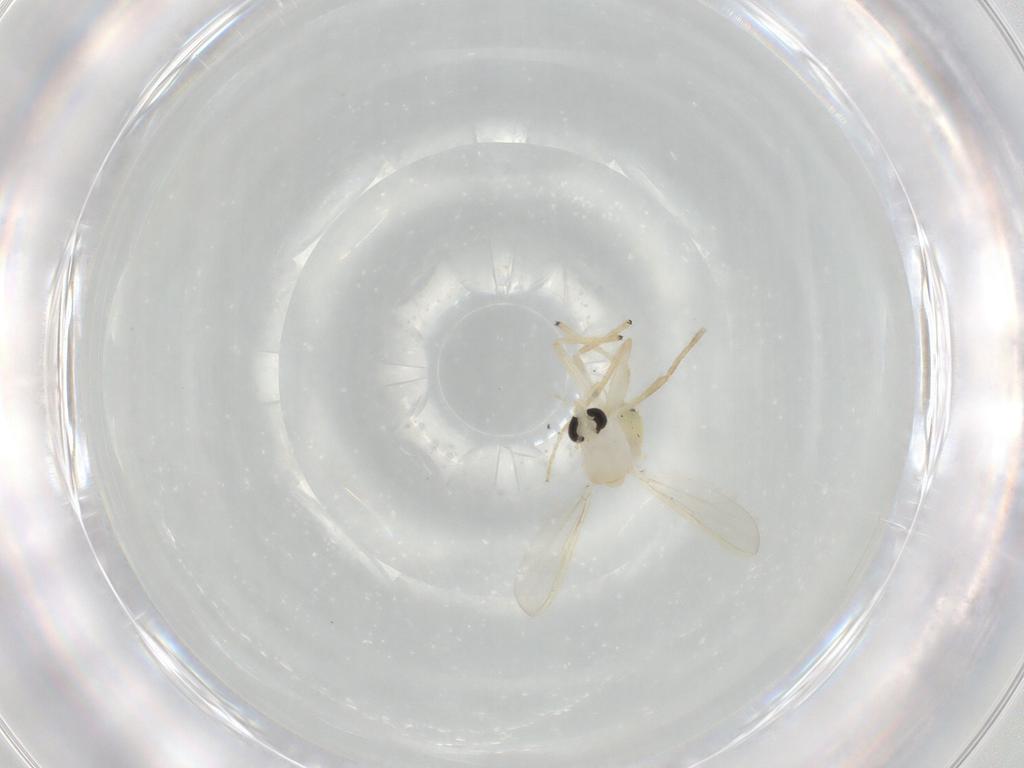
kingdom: Animalia
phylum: Arthropoda
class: Insecta
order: Diptera
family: Chironomidae
